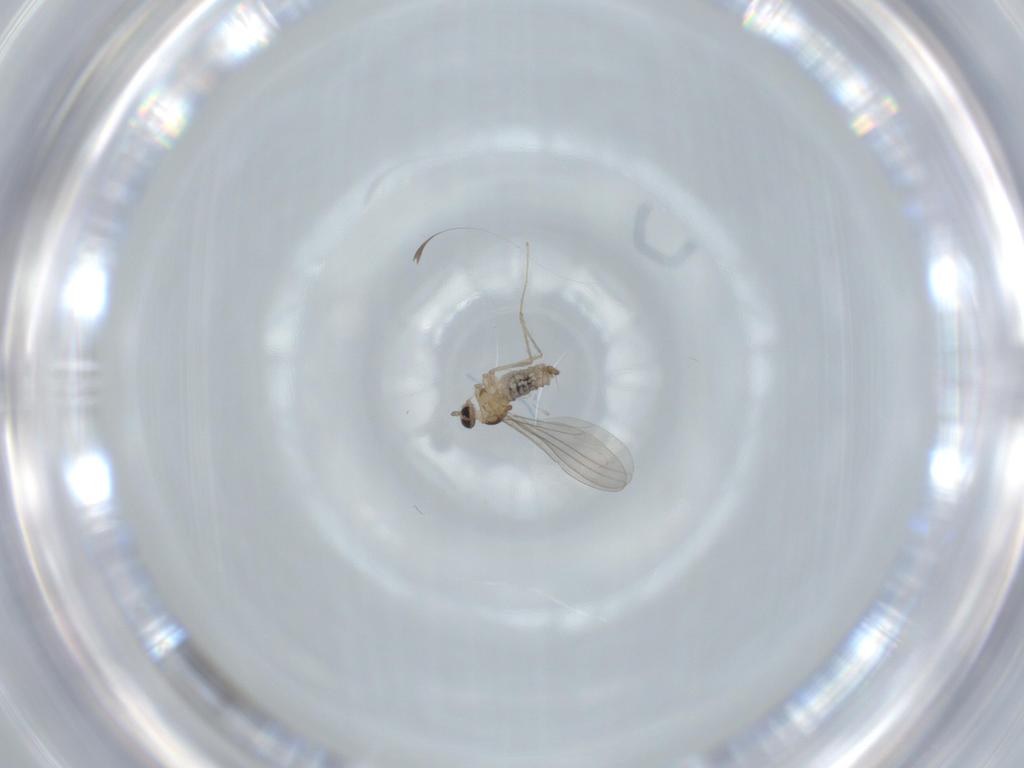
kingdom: Animalia
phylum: Arthropoda
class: Insecta
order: Diptera
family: Cecidomyiidae
